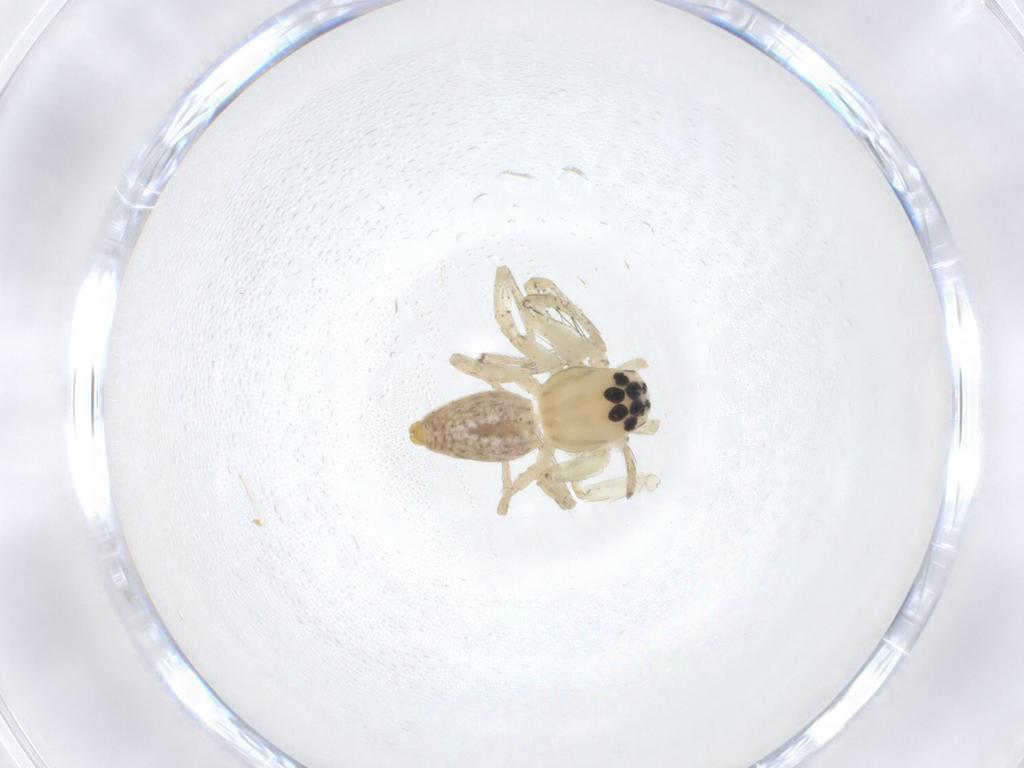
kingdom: Animalia
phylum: Arthropoda
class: Arachnida
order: Araneae
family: Oxyopidae
